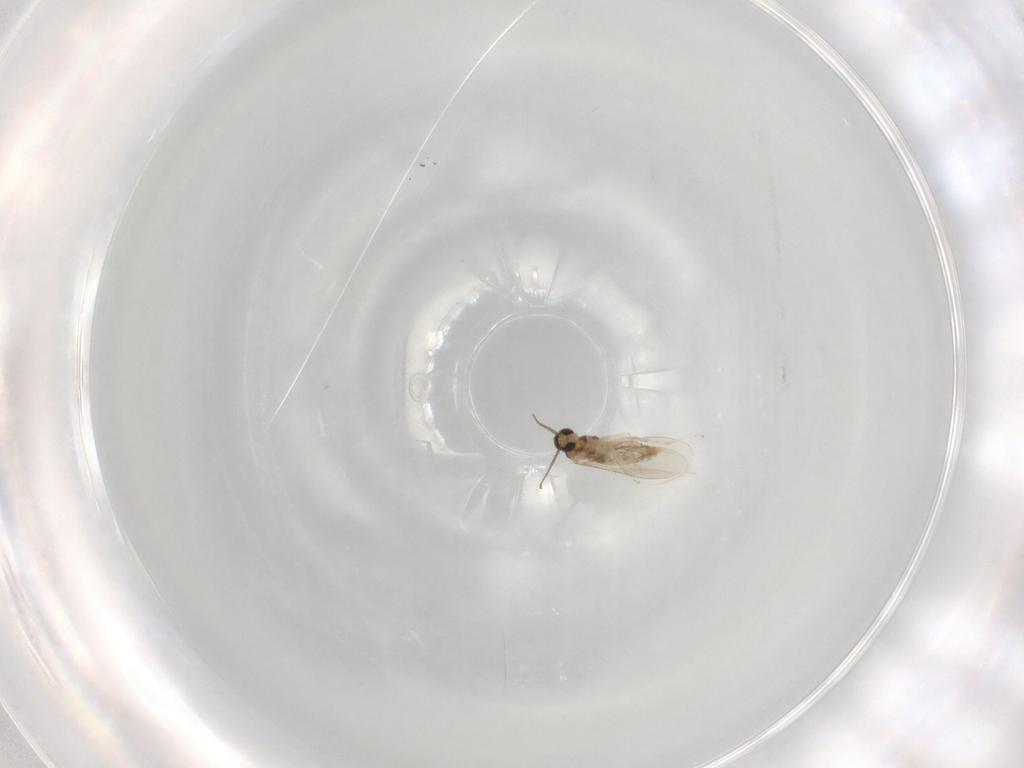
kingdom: Animalia
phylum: Arthropoda
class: Insecta
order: Diptera
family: Cecidomyiidae
